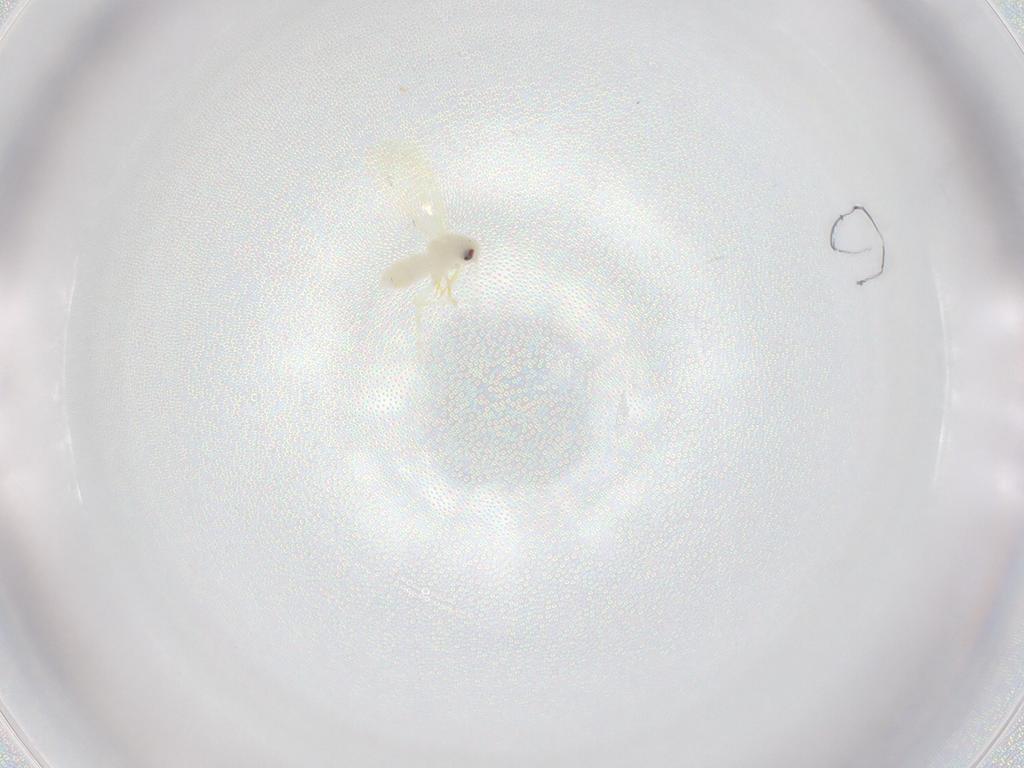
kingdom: Animalia
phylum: Arthropoda
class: Insecta
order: Hemiptera
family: Aleyrodidae
